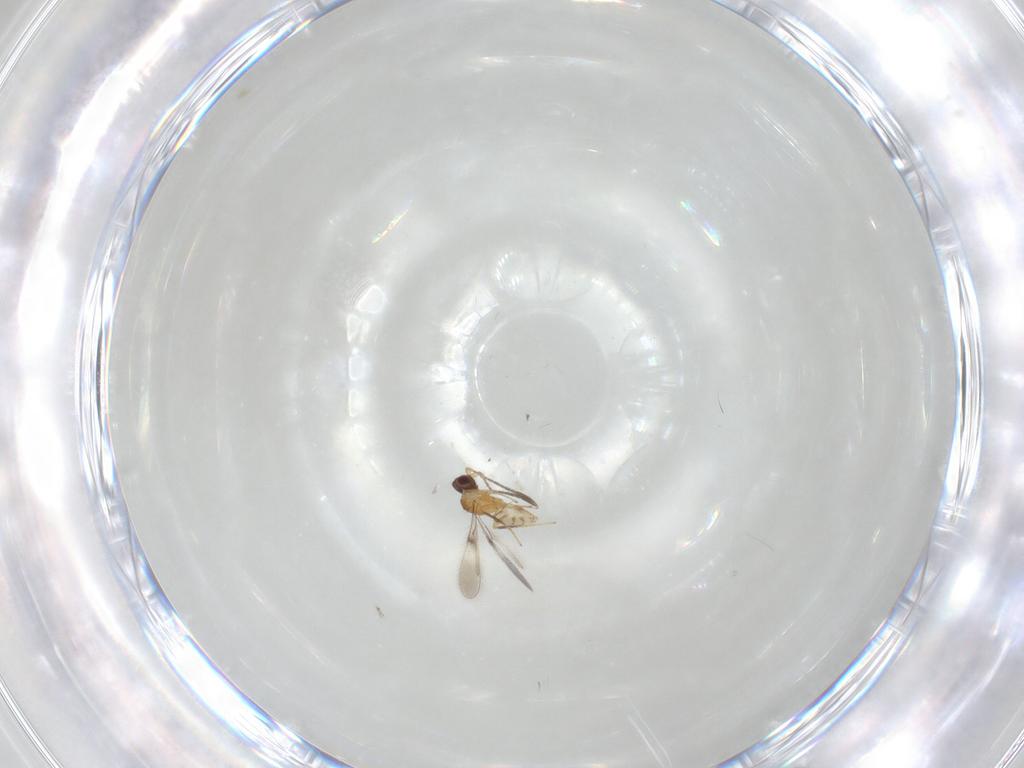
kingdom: Animalia
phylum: Arthropoda
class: Insecta
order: Hymenoptera
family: Mymaridae
